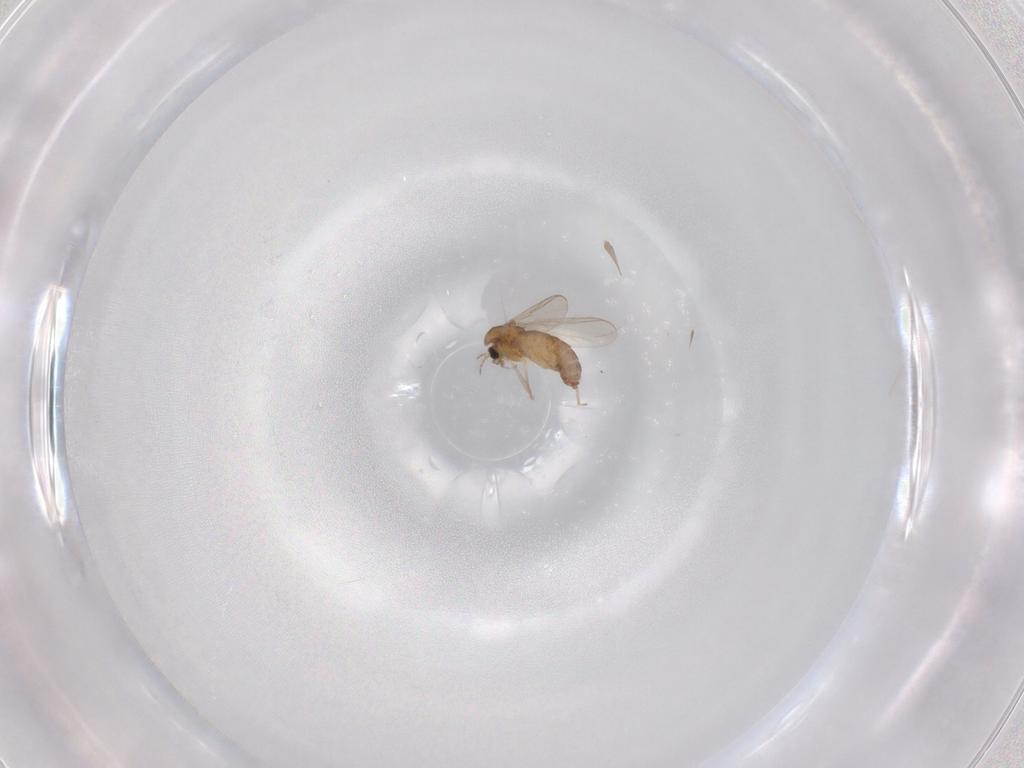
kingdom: Animalia
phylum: Arthropoda
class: Insecta
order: Diptera
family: Chironomidae
